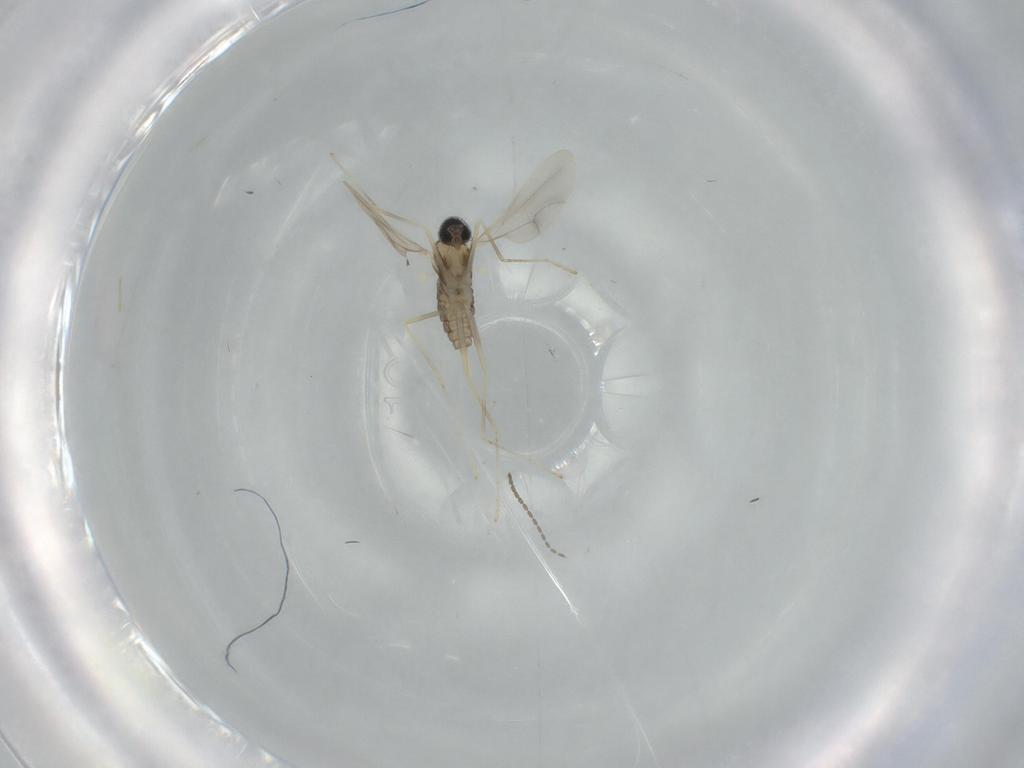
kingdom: Animalia
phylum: Arthropoda
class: Insecta
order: Diptera
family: Cecidomyiidae
